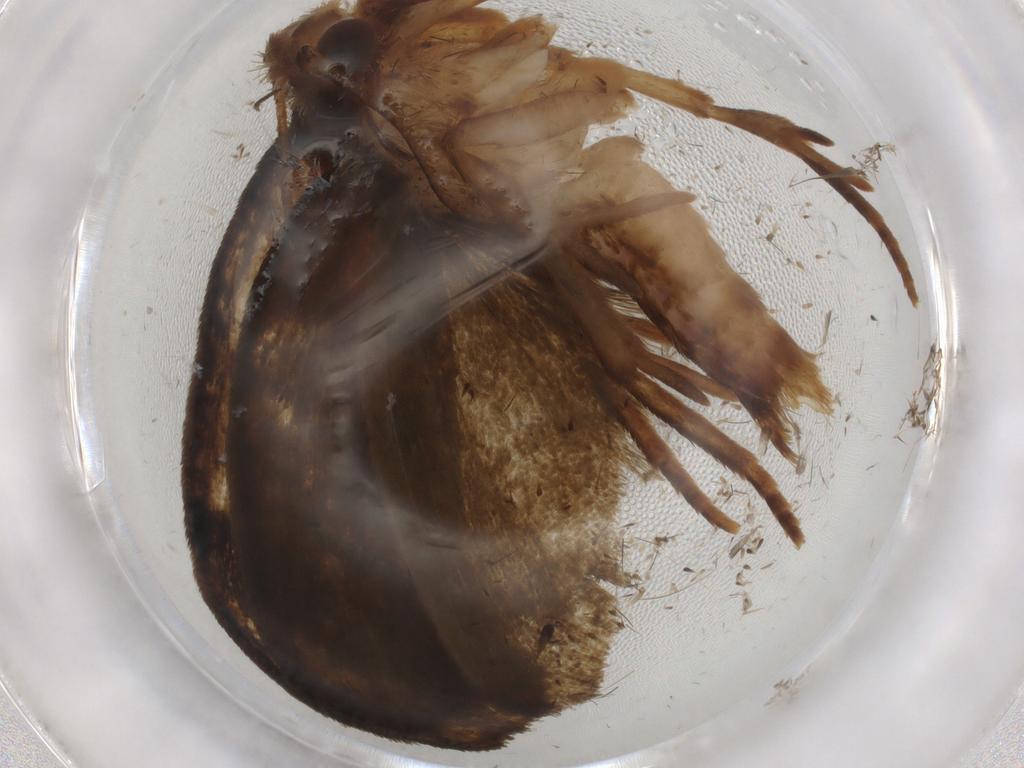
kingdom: Animalia
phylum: Arthropoda
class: Insecta
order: Lepidoptera
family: Geometridae
